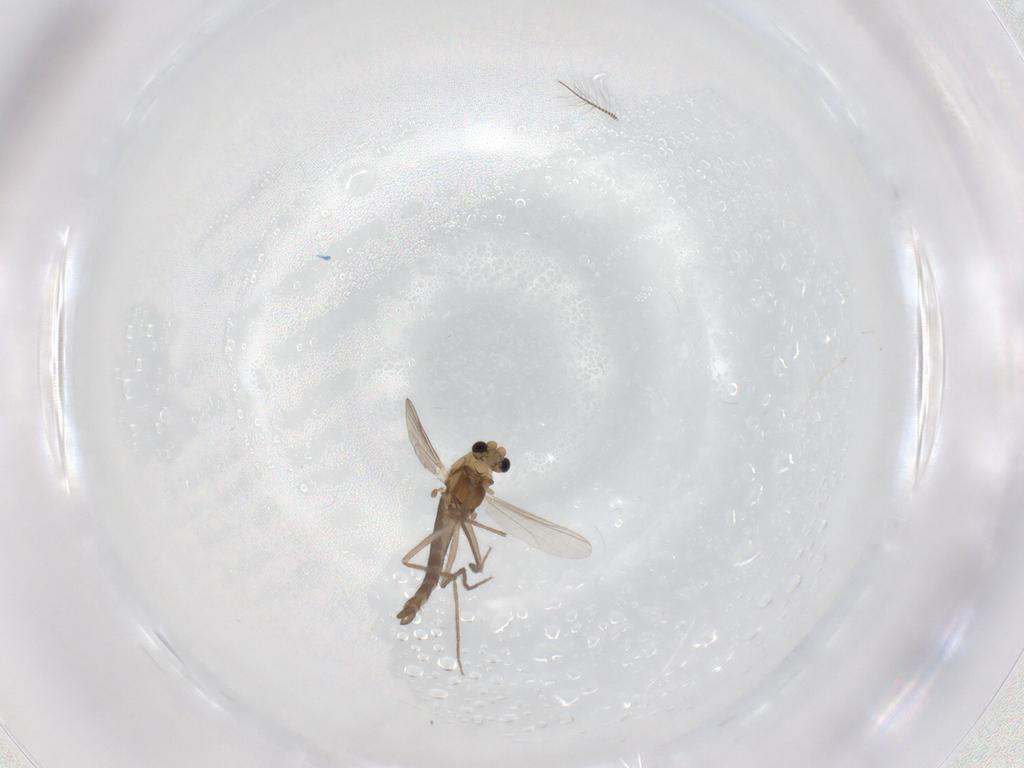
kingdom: Animalia
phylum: Arthropoda
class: Insecta
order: Diptera
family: Chironomidae
